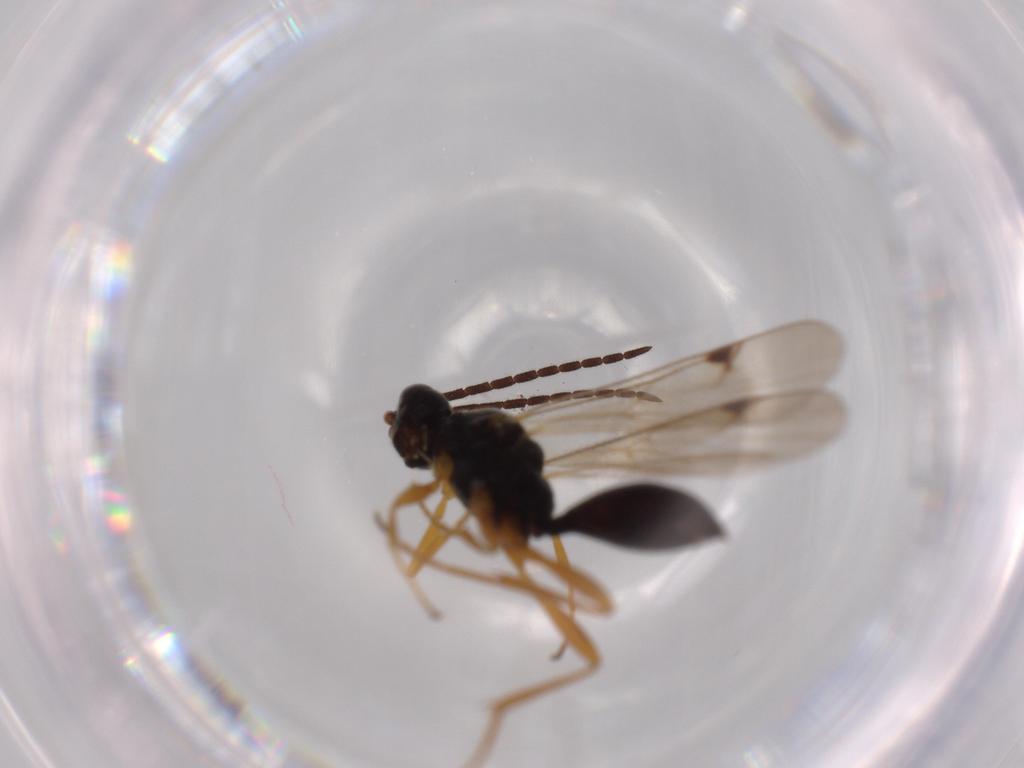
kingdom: Animalia
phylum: Arthropoda
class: Insecta
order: Hymenoptera
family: Proctotrupidae
